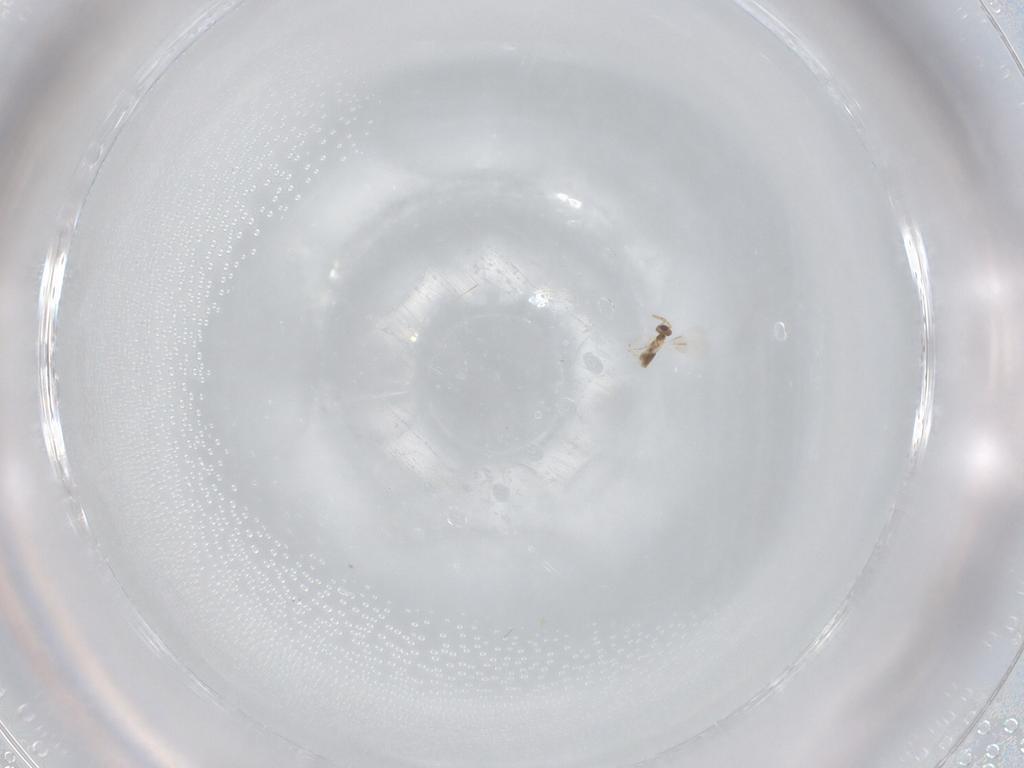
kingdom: Animalia
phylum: Arthropoda
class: Insecta
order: Hymenoptera
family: Aphelinidae
